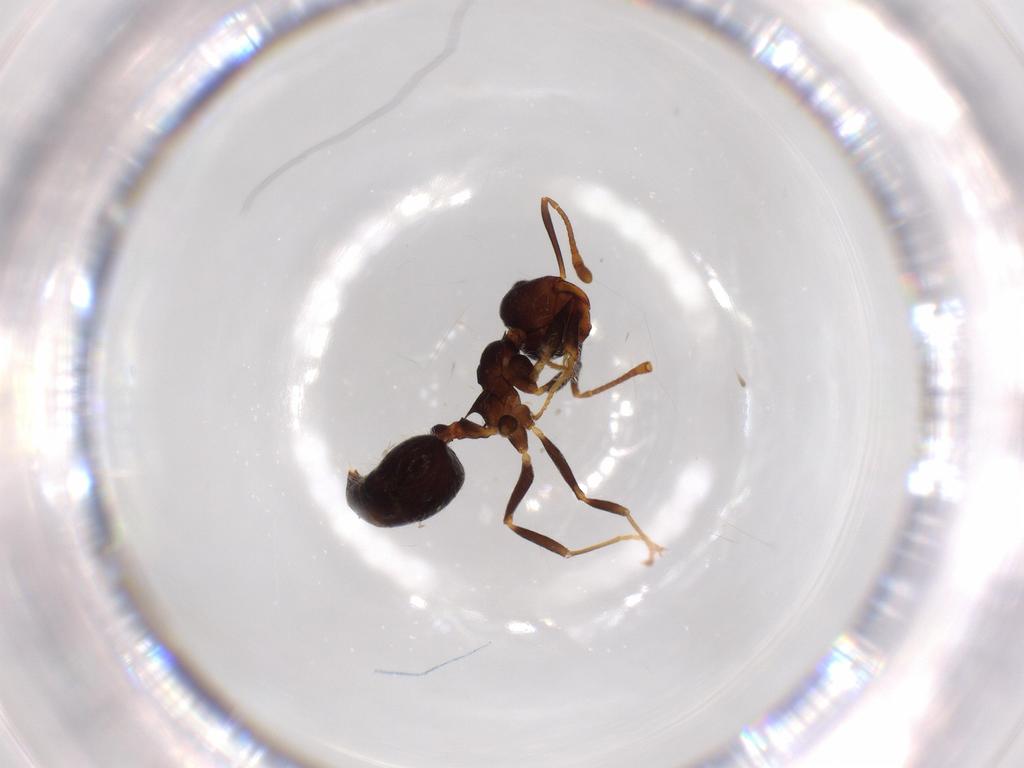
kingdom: Animalia
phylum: Arthropoda
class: Insecta
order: Hymenoptera
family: Formicidae
